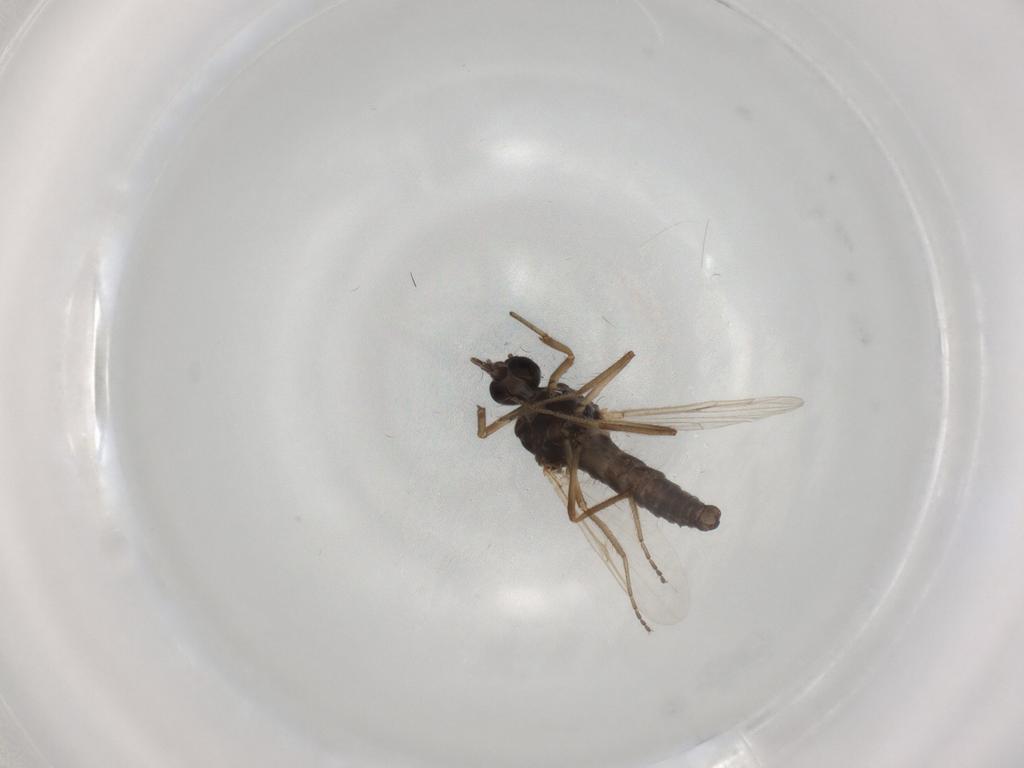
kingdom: Animalia
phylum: Arthropoda
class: Insecta
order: Diptera
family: Ceratopogonidae
